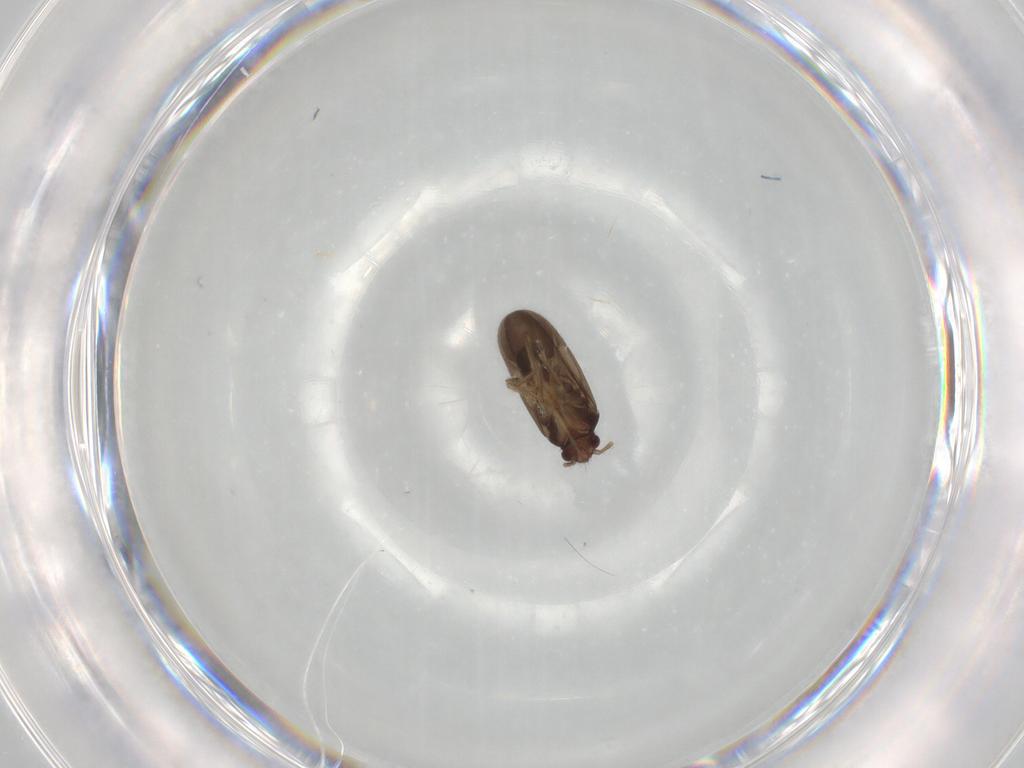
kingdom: Animalia
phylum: Arthropoda
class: Insecta
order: Hemiptera
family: Ceratocombidae
